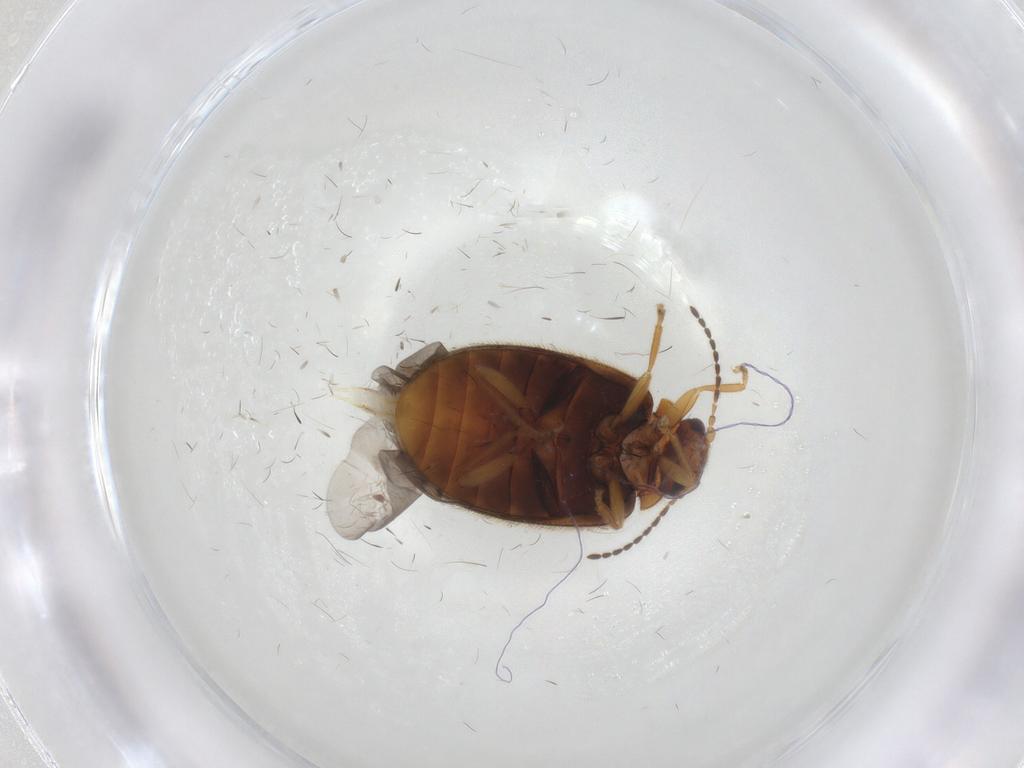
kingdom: Animalia
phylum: Arthropoda
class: Insecta
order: Coleoptera
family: Scirtidae
